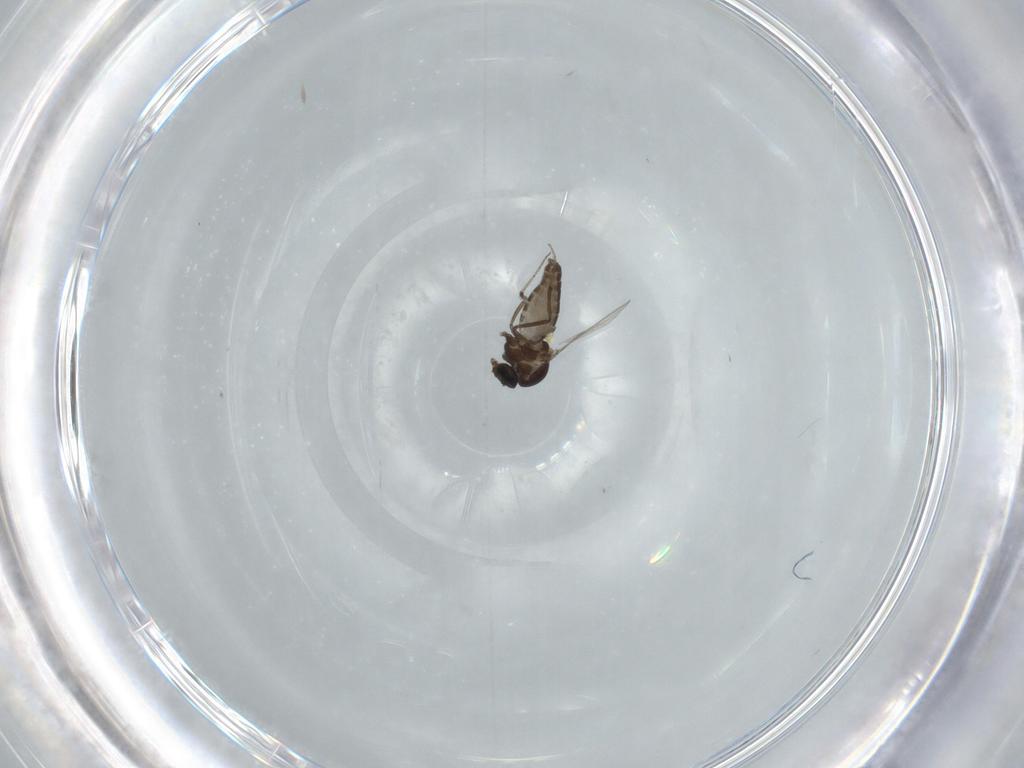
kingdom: Animalia
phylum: Arthropoda
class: Insecta
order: Diptera
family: Ceratopogonidae
